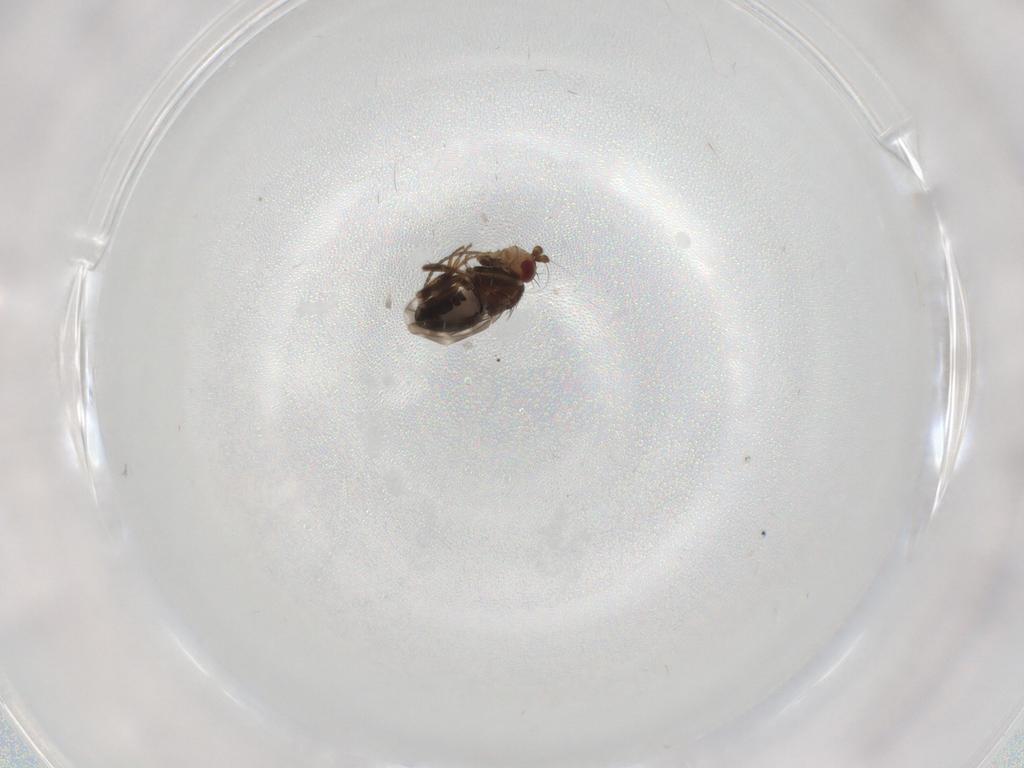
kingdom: Animalia
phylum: Arthropoda
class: Insecta
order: Diptera
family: Sphaeroceridae
